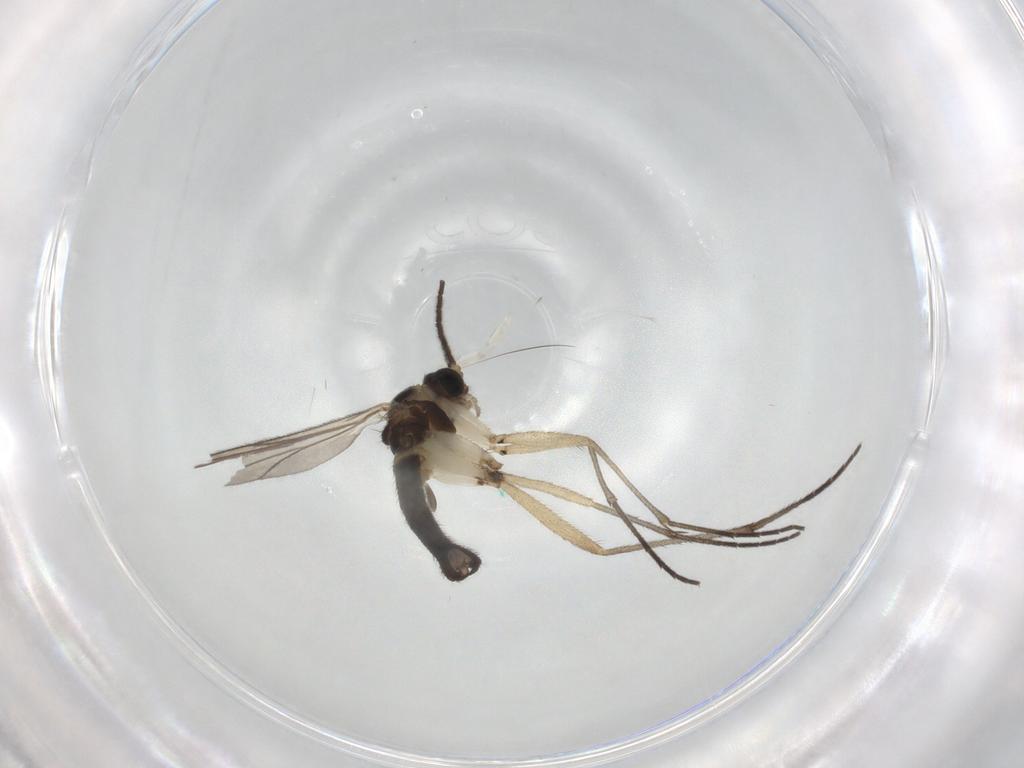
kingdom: Animalia
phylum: Arthropoda
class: Insecta
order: Diptera
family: Sciaridae
